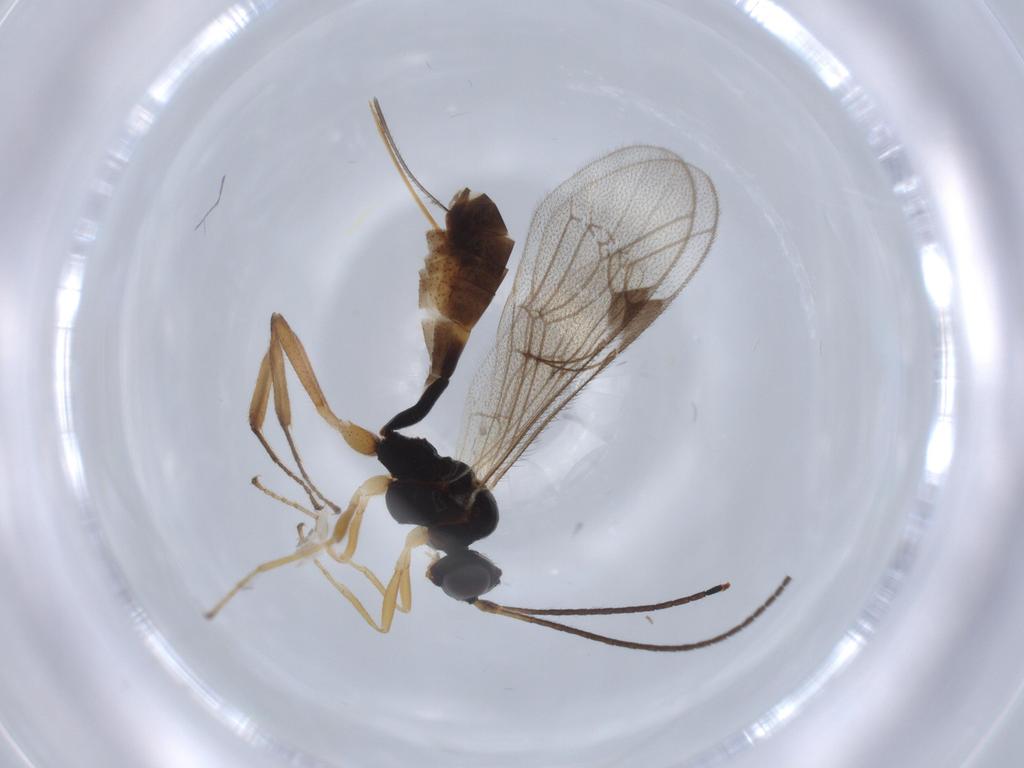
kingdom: Animalia
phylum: Arthropoda
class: Insecta
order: Hymenoptera
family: Ichneumonidae
